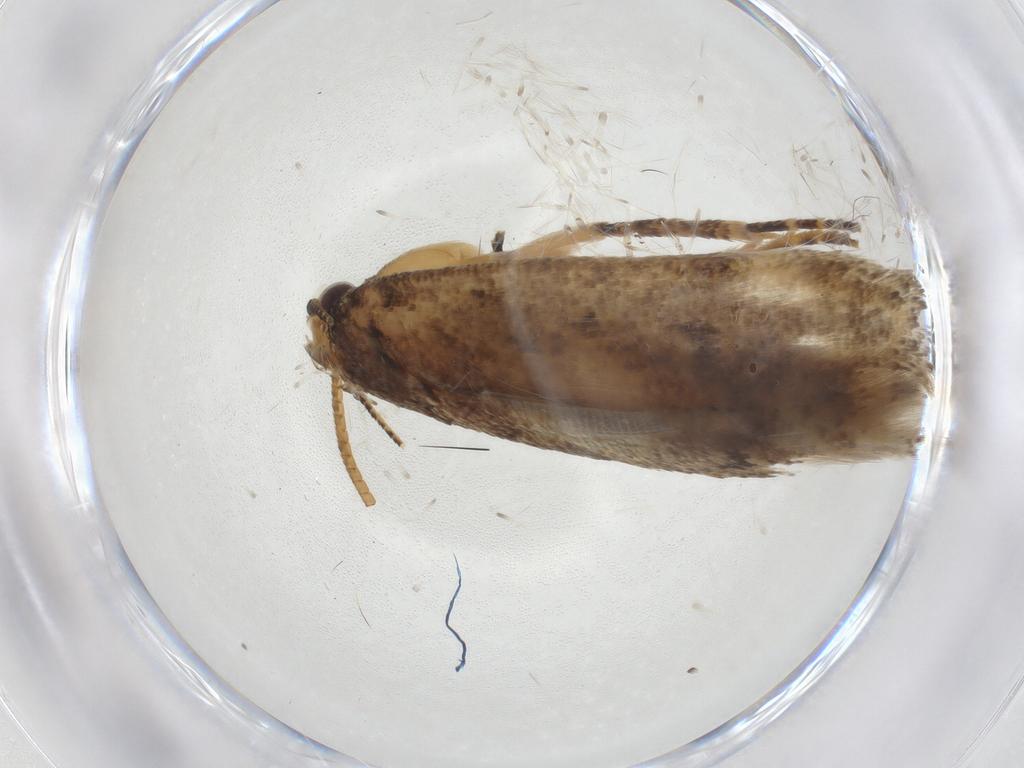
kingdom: Animalia
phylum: Arthropoda
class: Insecta
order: Lepidoptera
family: Gelechiidae
